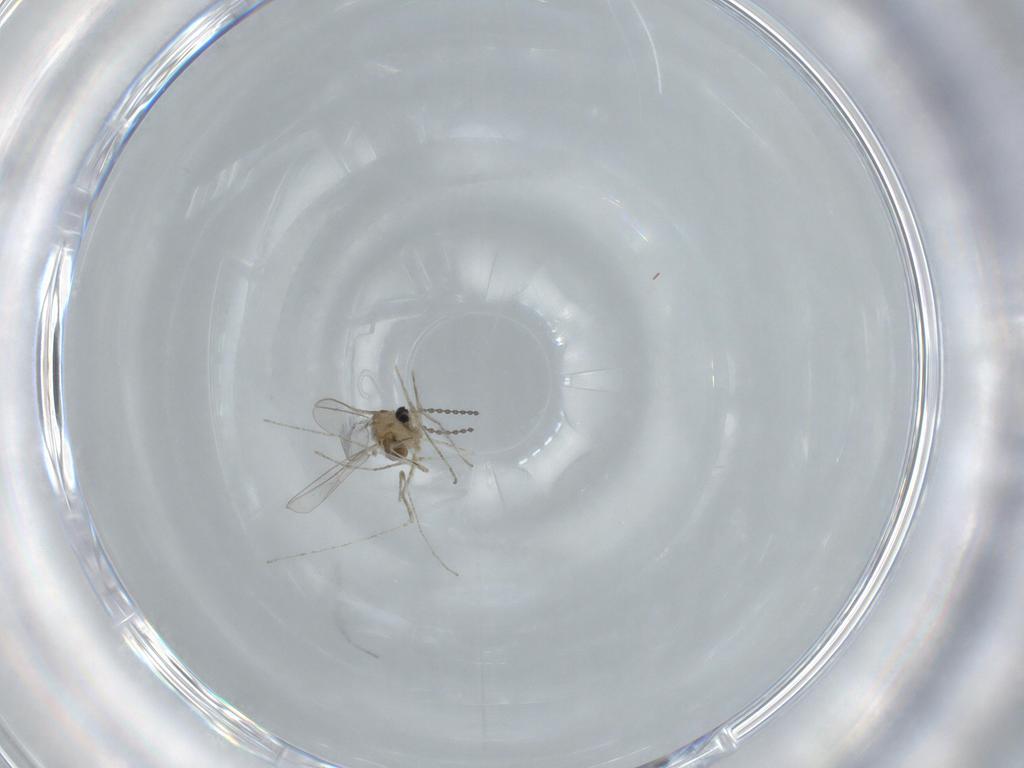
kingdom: Animalia
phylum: Arthropoda
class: Insecta
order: Diptera
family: Cecidomyiidae
